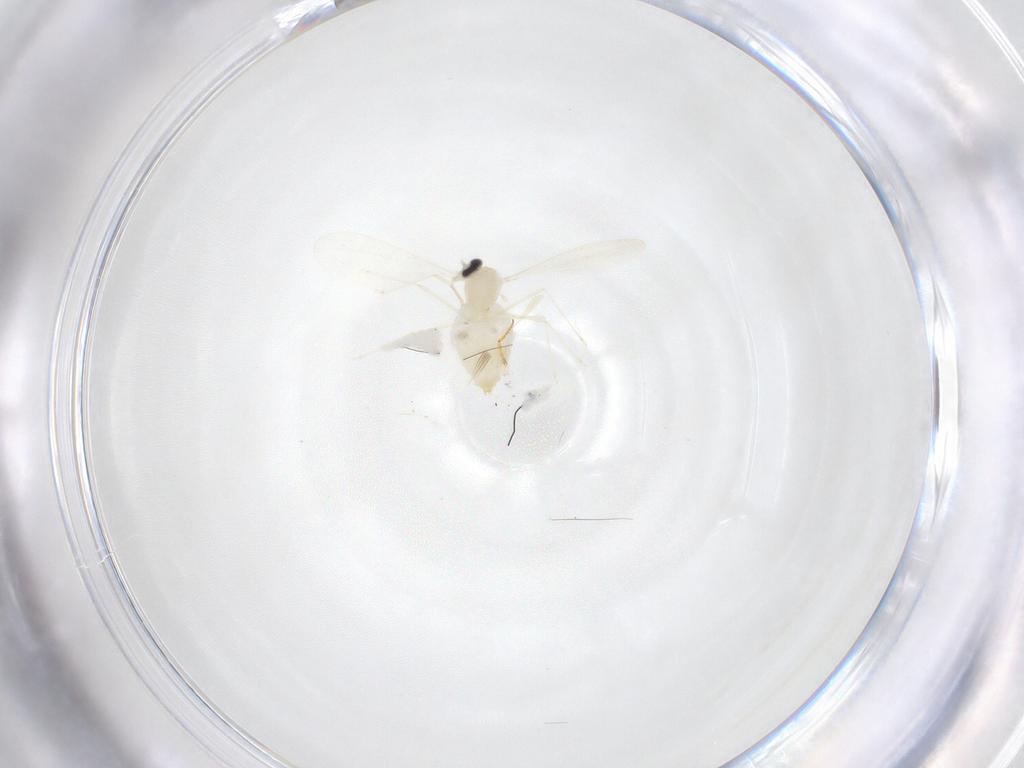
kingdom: Animalia
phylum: Arthropoda
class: Insecta
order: Diptera
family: Cecidomyiidae
